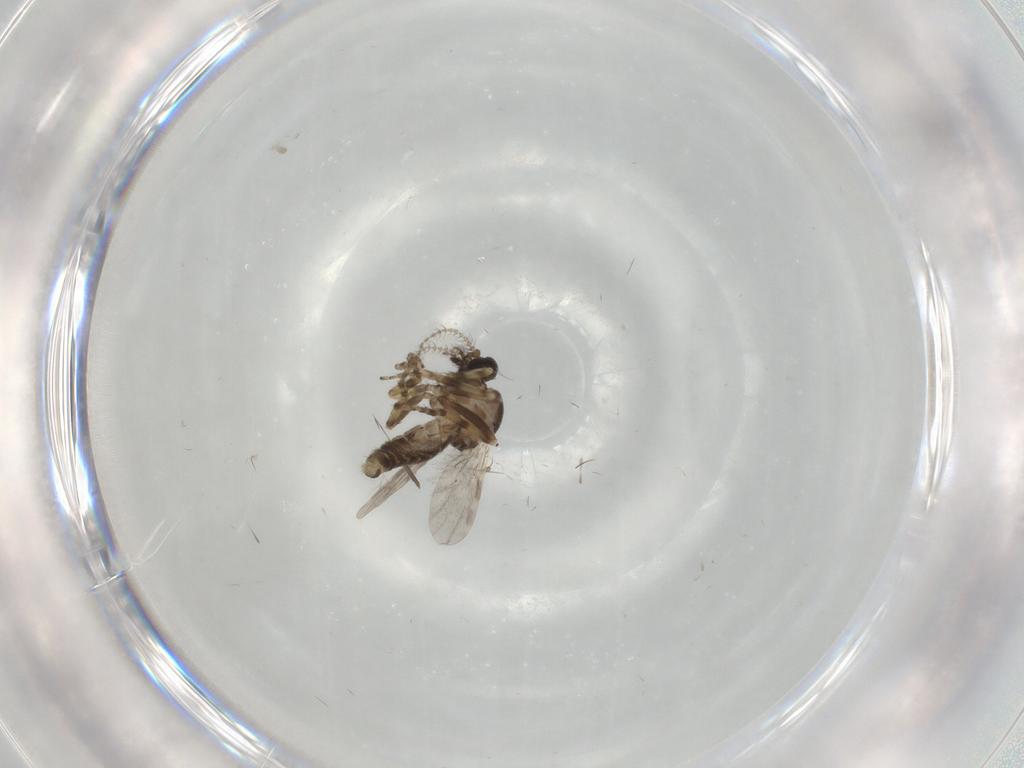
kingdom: Animalia
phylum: Arthropoda
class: Insecta
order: Diptera
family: Ceratopogonidae
